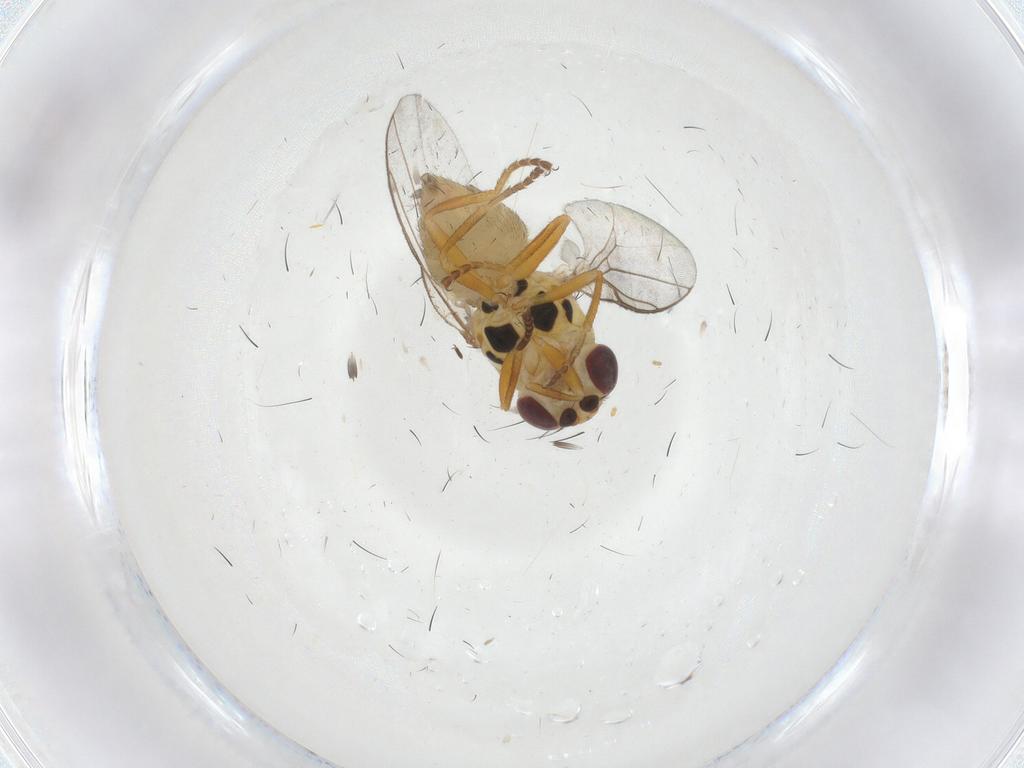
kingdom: Animalia
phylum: Arthropoda
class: Insecta
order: Diptera
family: Chloropidae
